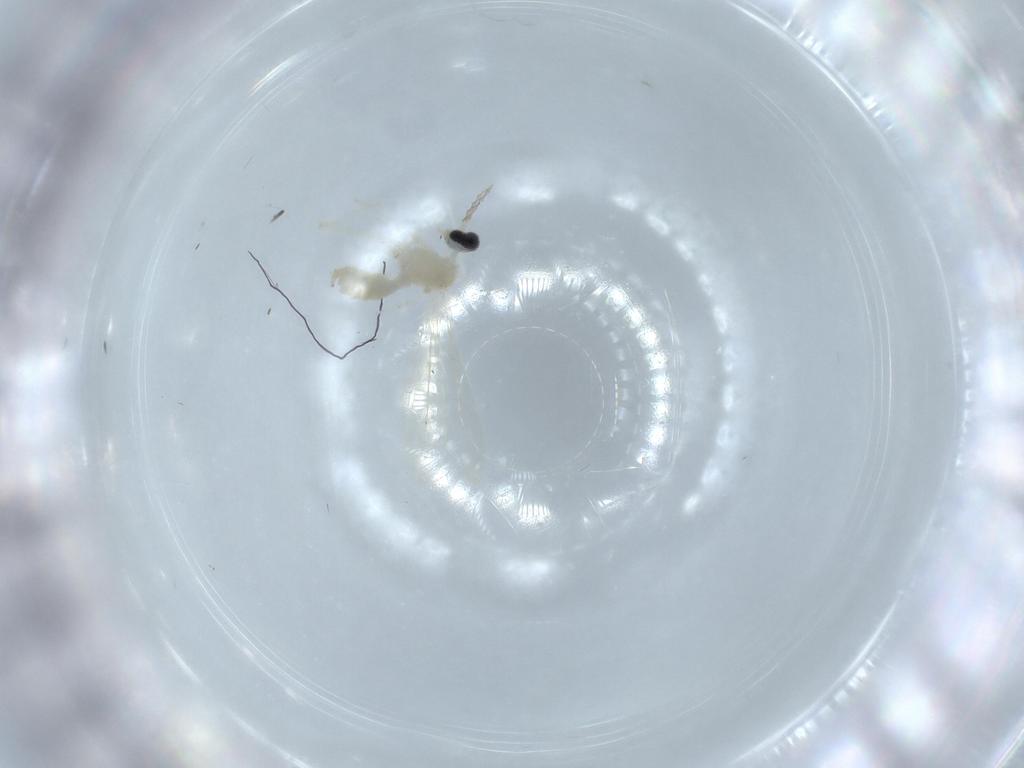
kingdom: Animalia
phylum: Arthropoda
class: Insecta
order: Diptera
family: Cecidomyiidae
